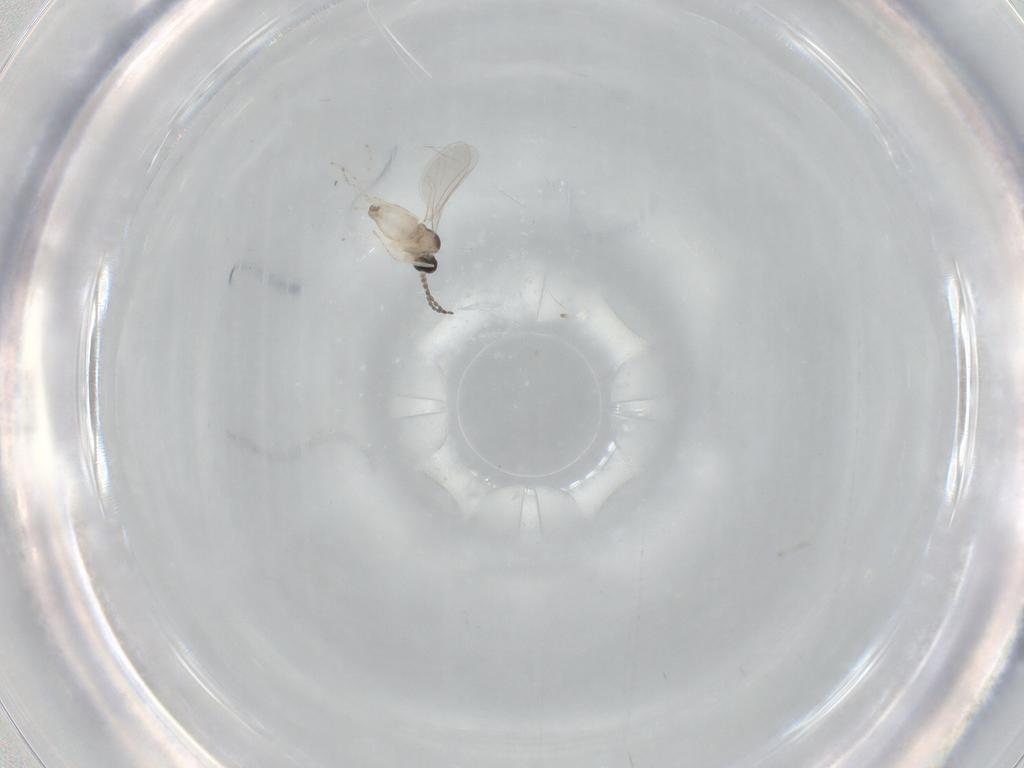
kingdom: Animalia
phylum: Arthropoda
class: Insecta
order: Diptera
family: Cecidomyiidae
